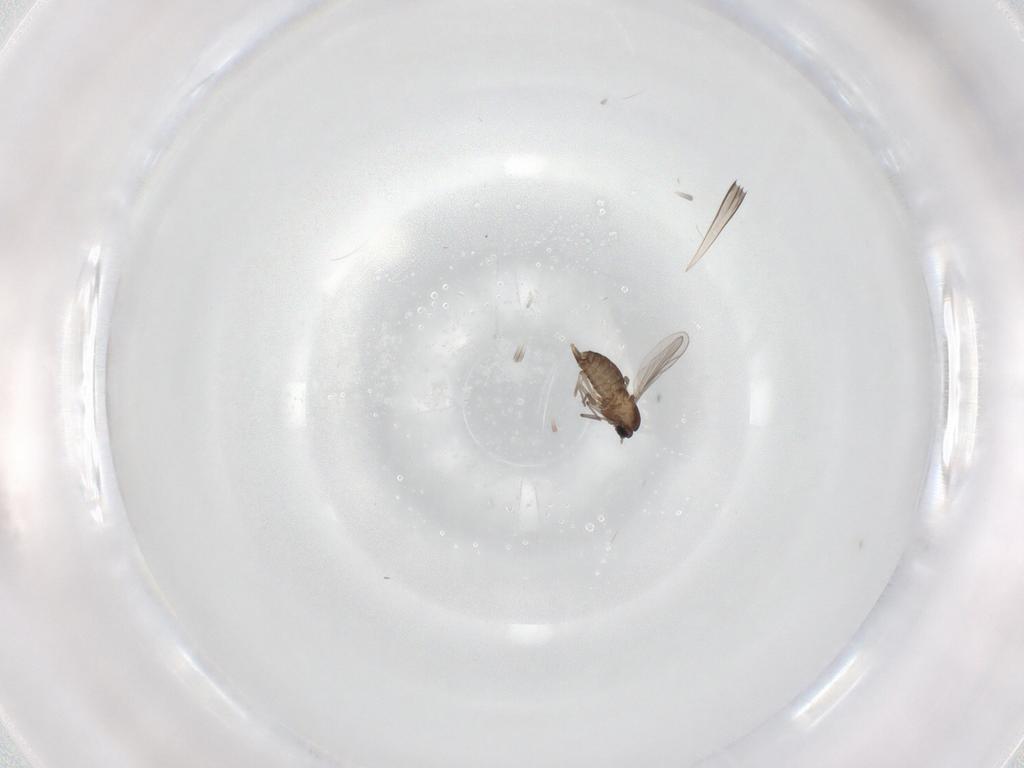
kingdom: Animalia
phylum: Arthropoda
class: Insecta
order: Diptera
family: Chironomidae
